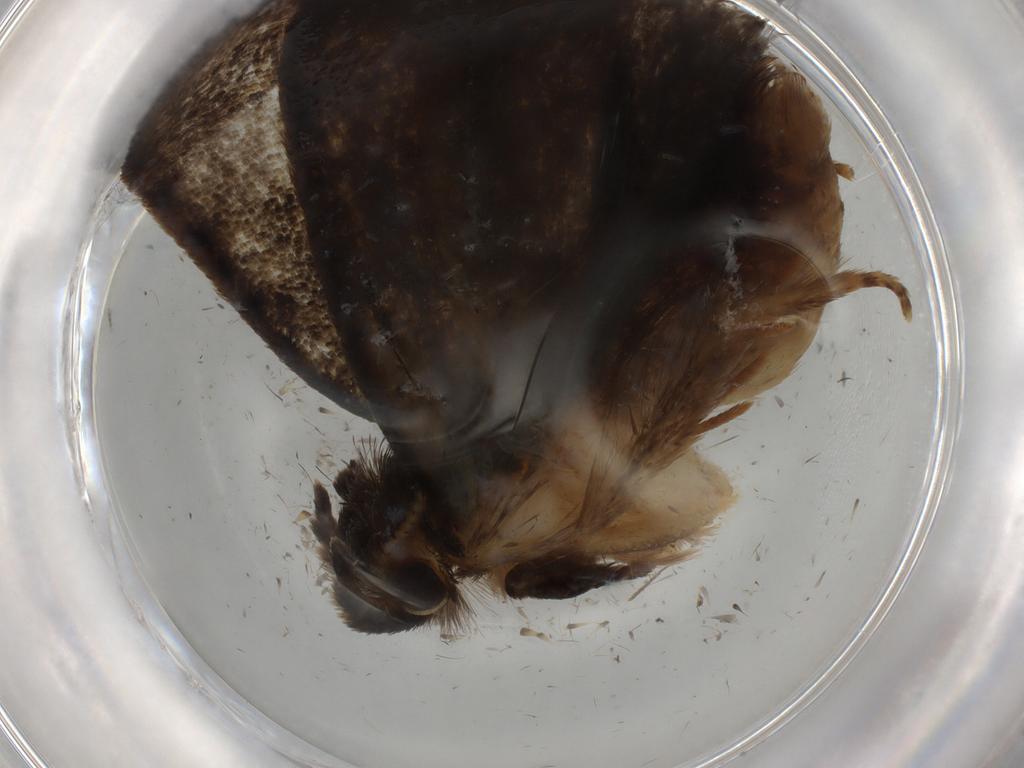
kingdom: Animalia
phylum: Arthropoda
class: Insecta
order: Lepidoptera
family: Tineidae
